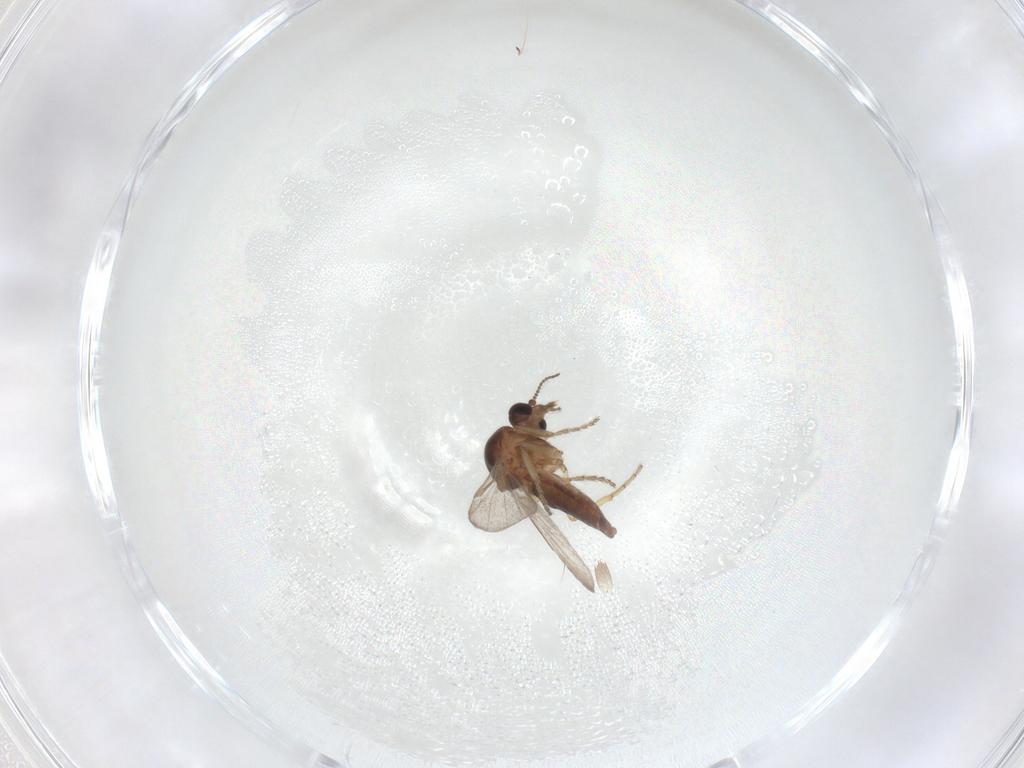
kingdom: Animalia
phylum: Arthropoda
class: Insecta
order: Diptera
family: Ceratopogonidae
